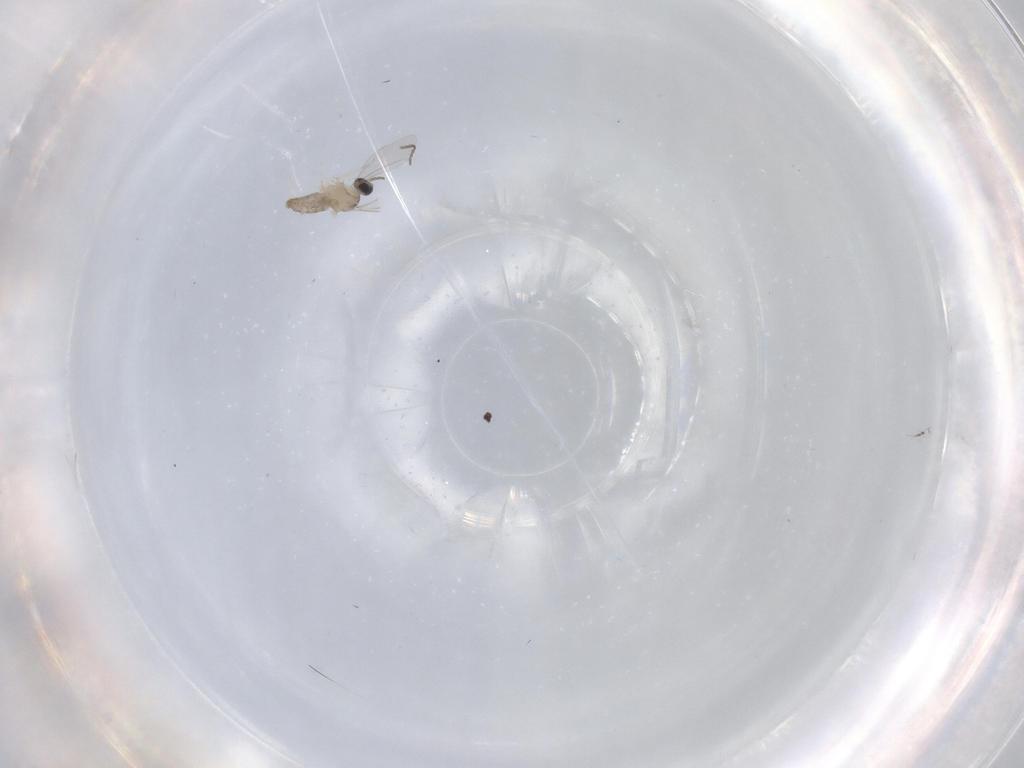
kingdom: Animalia
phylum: Arthropoda
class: Insecta
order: Diptera
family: Cecidomyiidae
